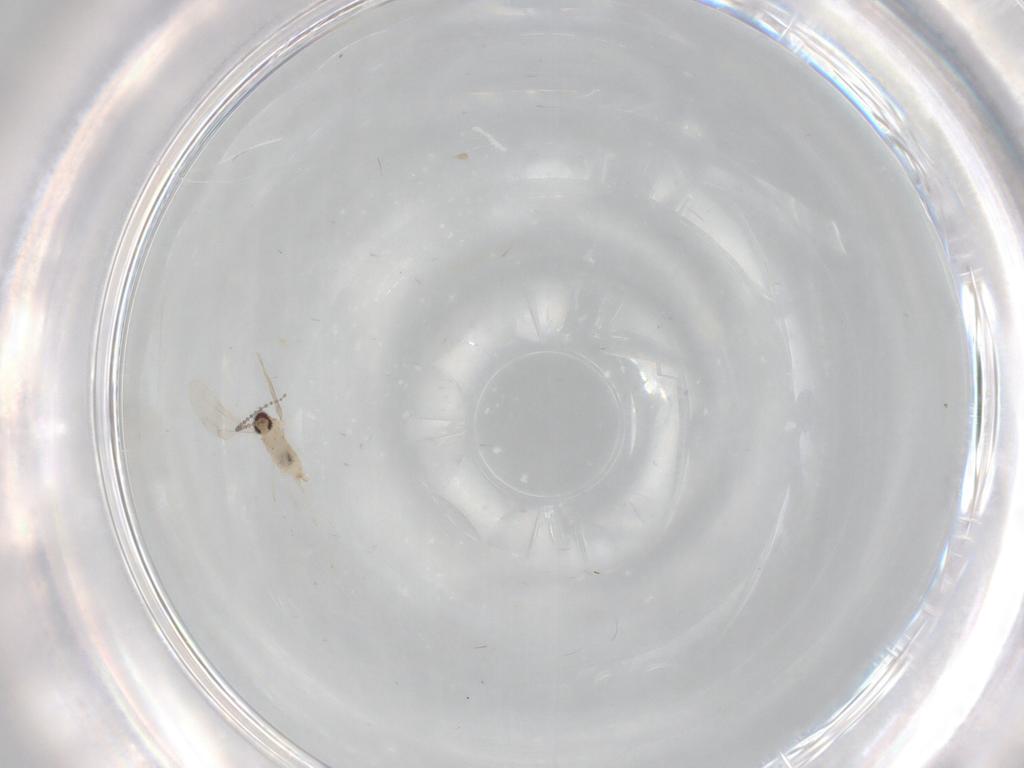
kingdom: Animalia
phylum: Arthropoda
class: Insecta
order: Diptera
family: Cecidomyiidae
